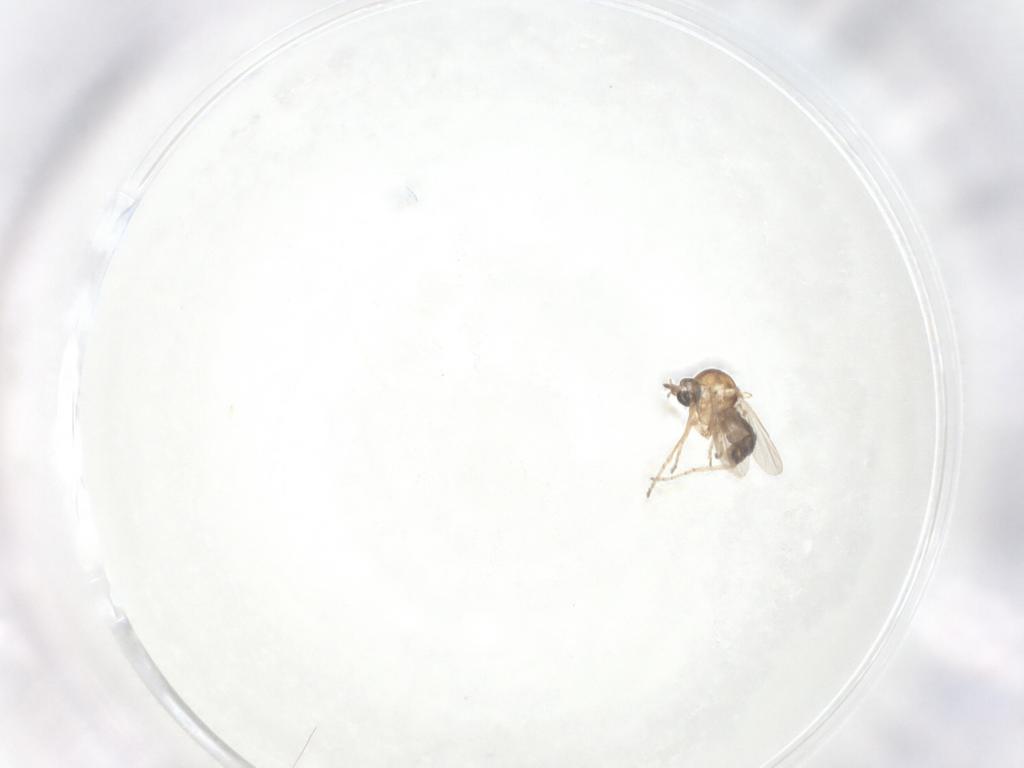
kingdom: Animalia
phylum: Arthropoda
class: Insecta
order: Diptera
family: Ceratopogonidae
